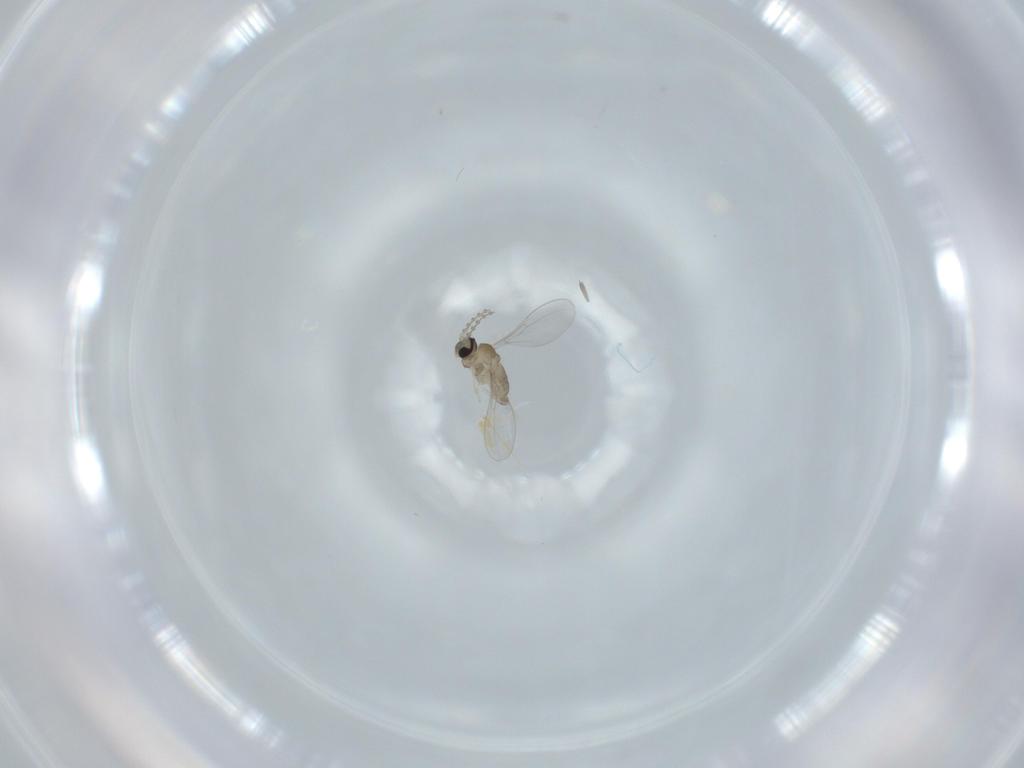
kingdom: Animalia
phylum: Arthropoda
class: Insecta
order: Diptera
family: Cecidomyiidae
